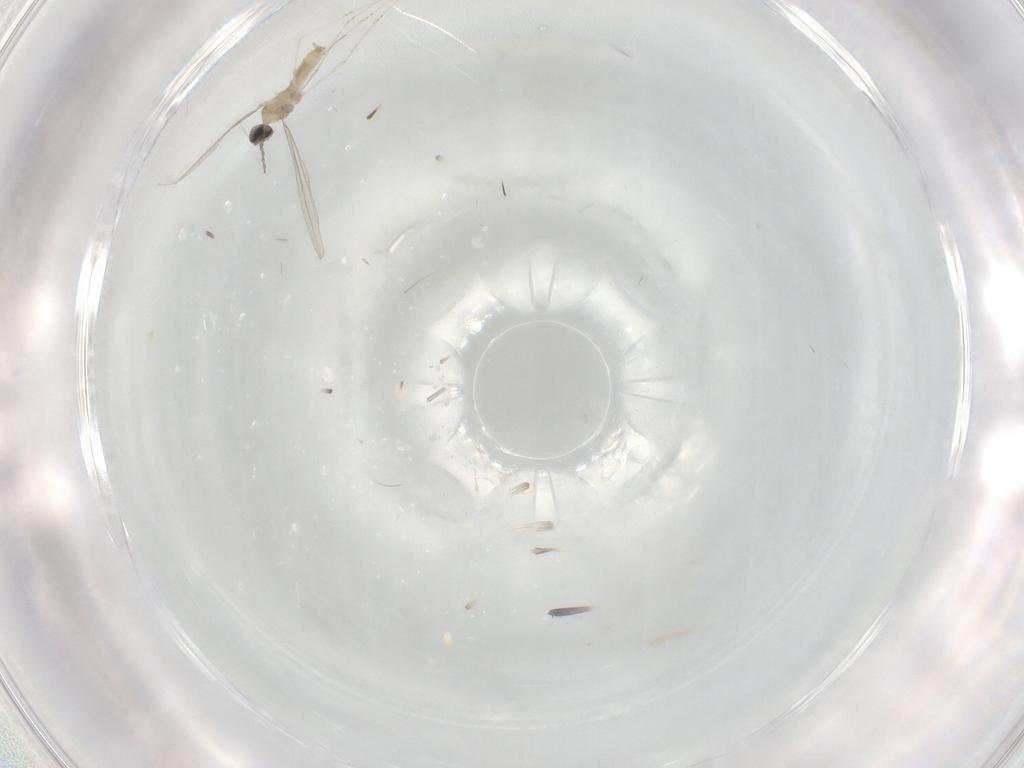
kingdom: Animalia
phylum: Arthropoda
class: Insecta
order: Diptera
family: Cecidomyiidae
